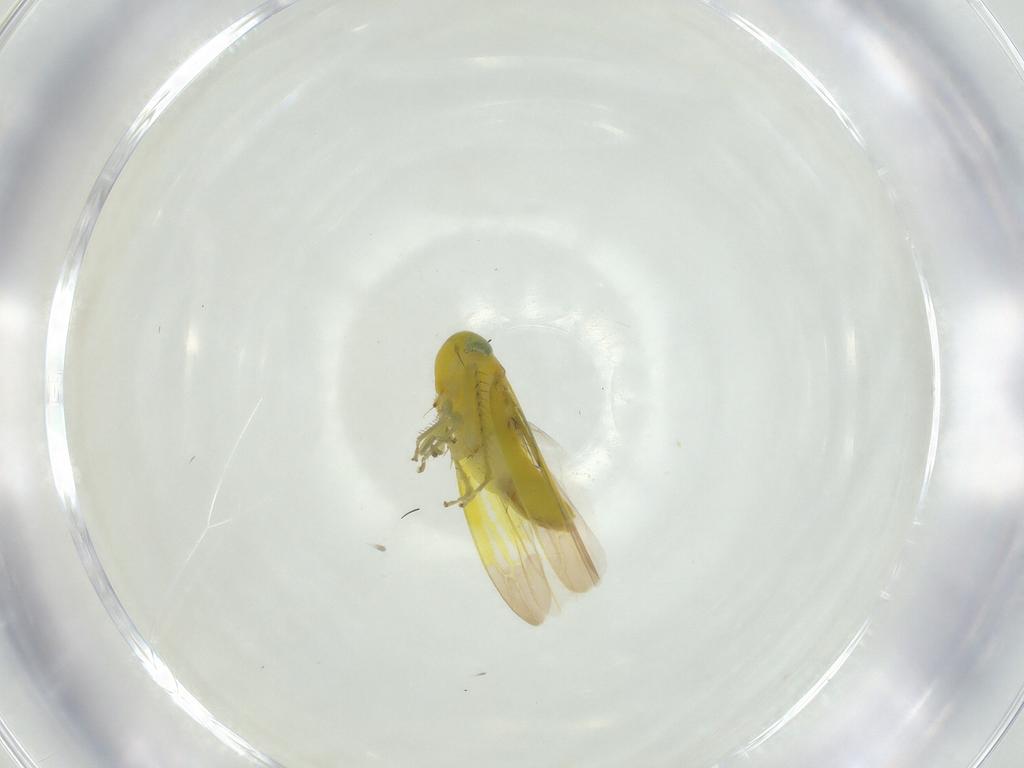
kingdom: Animalia
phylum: Arthropoda
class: Insecta
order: Hemiptera
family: Cicadellidae
